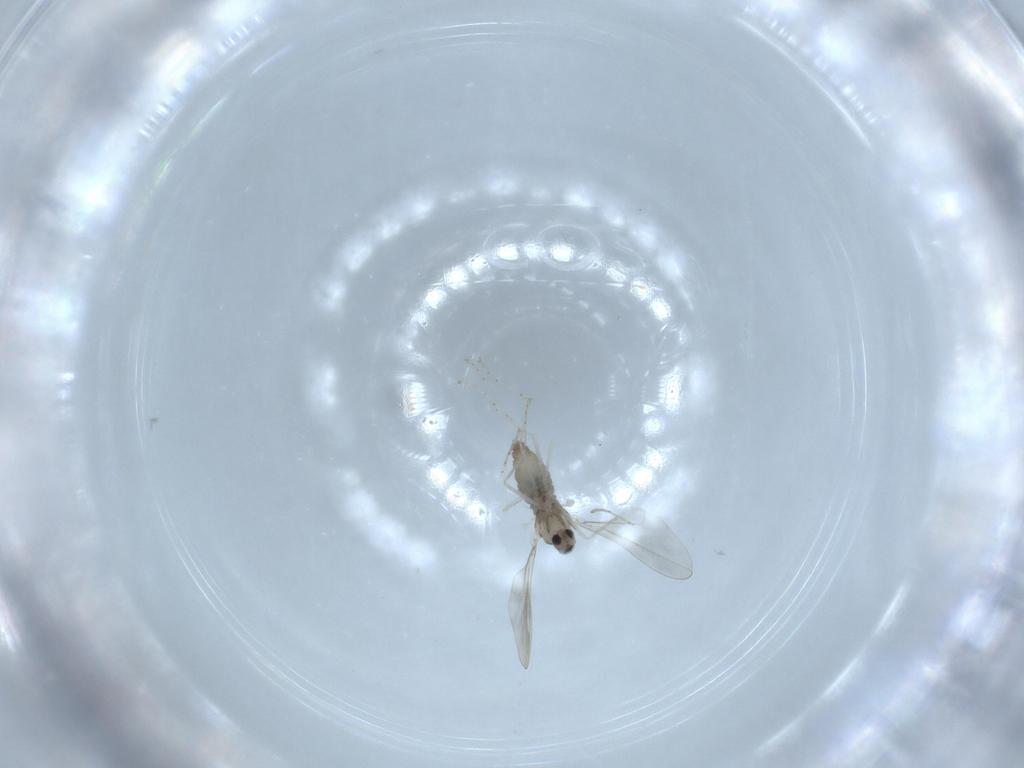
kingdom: Animalia
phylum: Arthropoda
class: Insecta
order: Diptera
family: Cecidomyiidae
